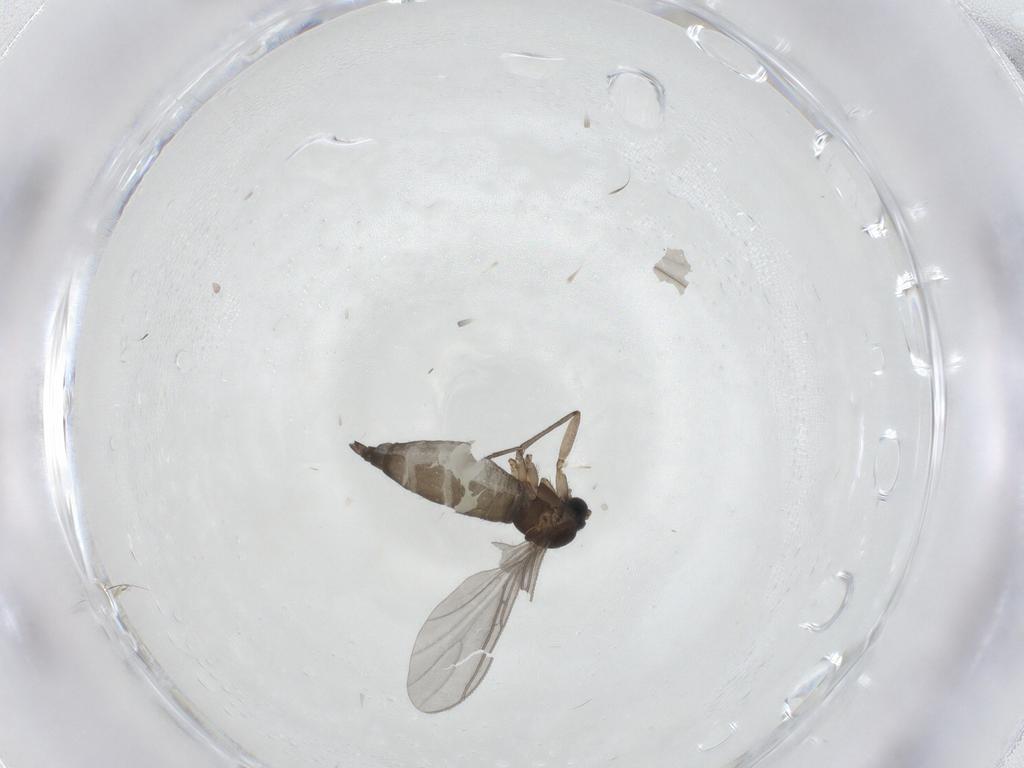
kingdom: Animalia
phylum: Arthropoda
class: Insecta
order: Diptera
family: Sciaridae
